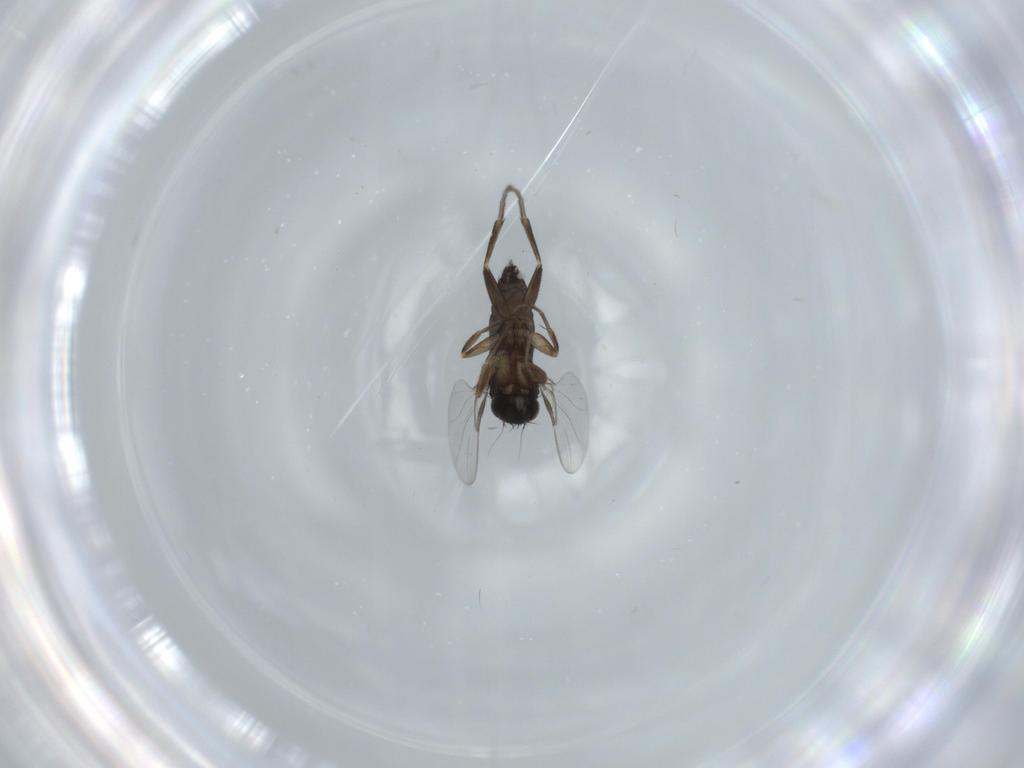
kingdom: Animalia
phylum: Arthropoda
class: Insecta
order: Diptera
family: Phoridae
